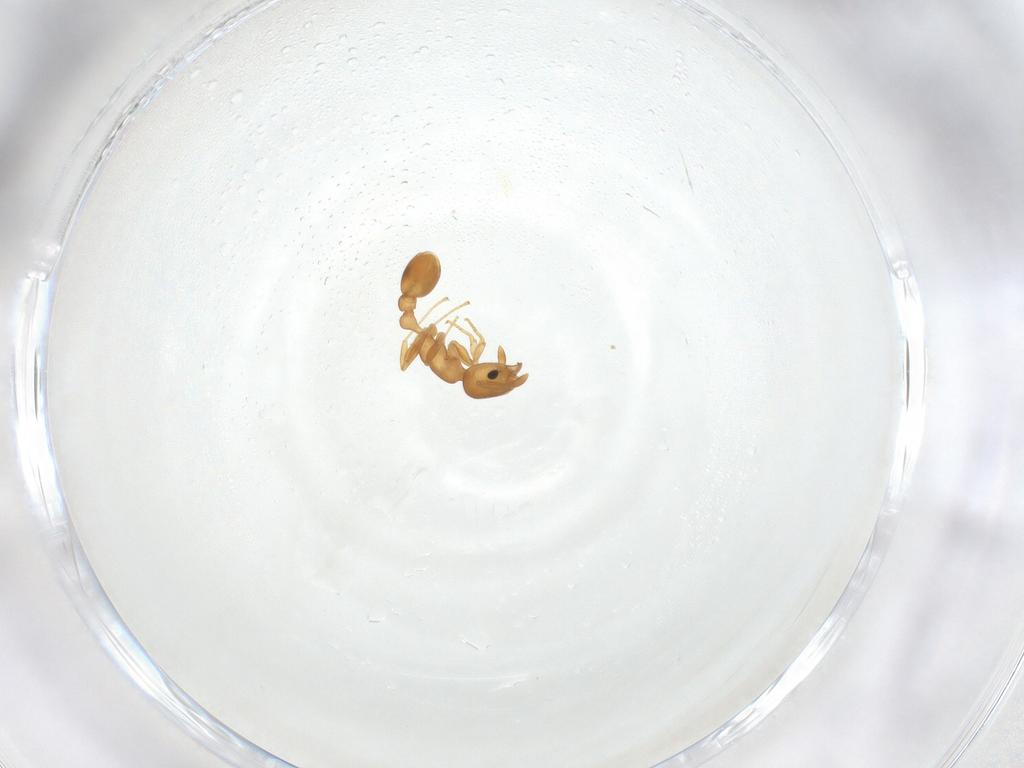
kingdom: Animalia
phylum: Arthropoda
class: Insecta
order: Hymenoptera
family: Formicidae
